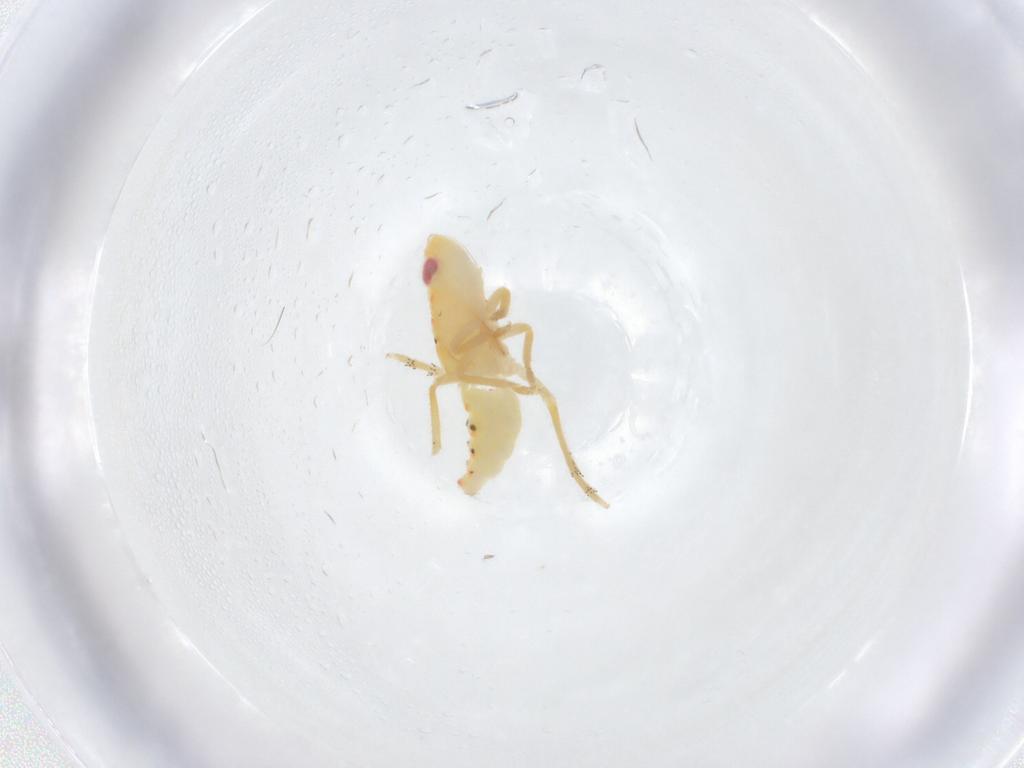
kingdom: Animalia
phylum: Arthropoda
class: Insecta
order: Hemiptera
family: Tropiduchidae
